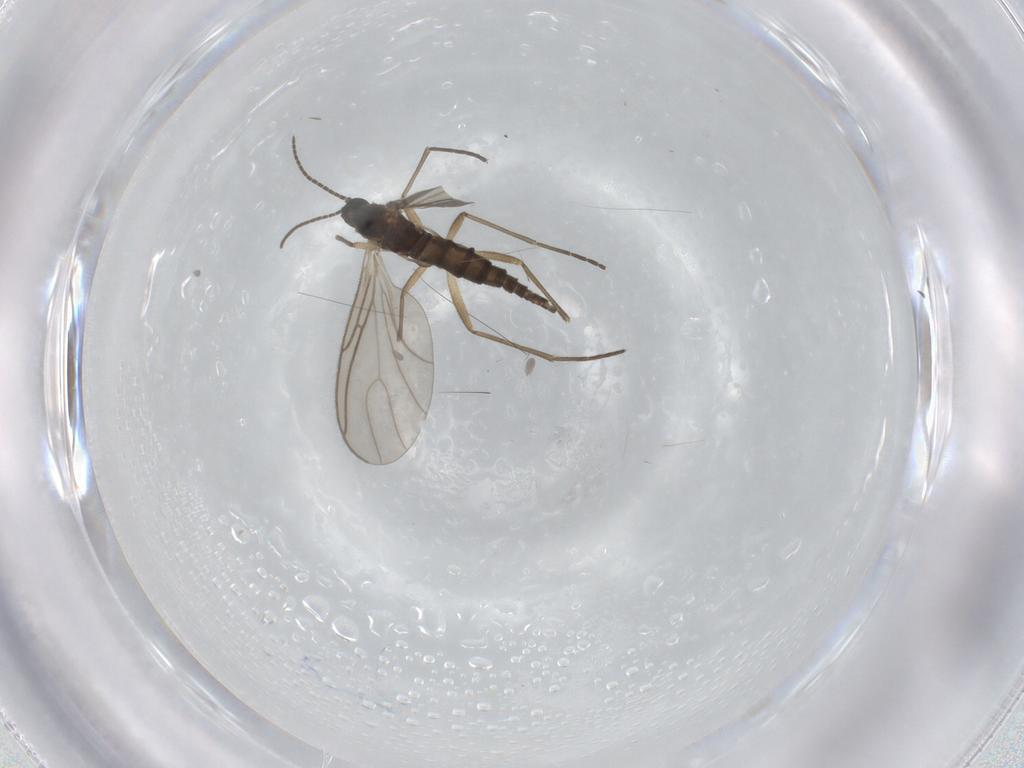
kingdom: Animalia
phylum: Arthropoda
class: Insecta
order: Diptera
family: Sciaridae
